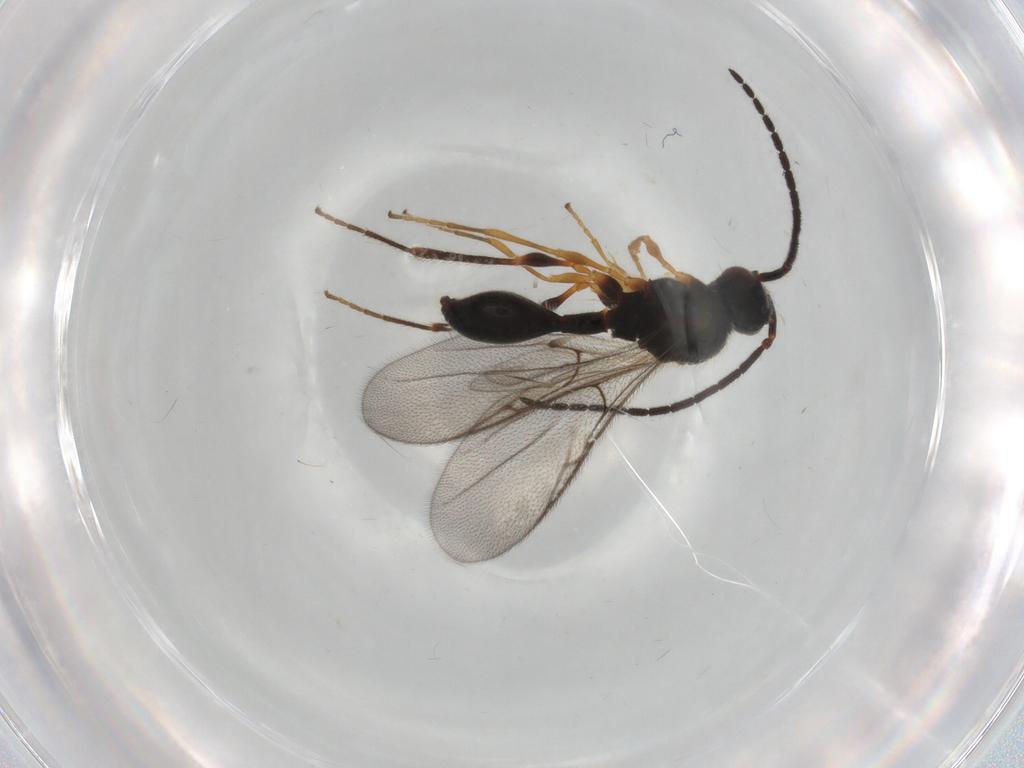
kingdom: Animalia
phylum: Arthropoda
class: Insecta
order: Hymenoptera
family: Diapriidae
